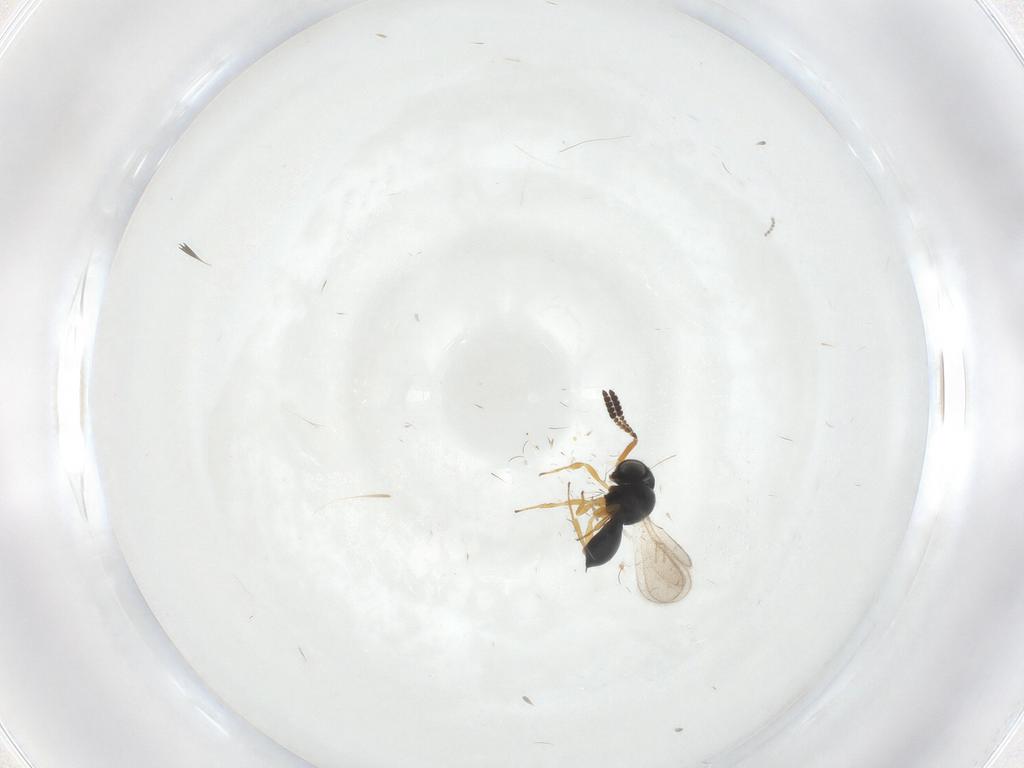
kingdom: Animalia
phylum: Arthropoda
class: Insecta
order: Hymenoptera
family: Scelionidae
